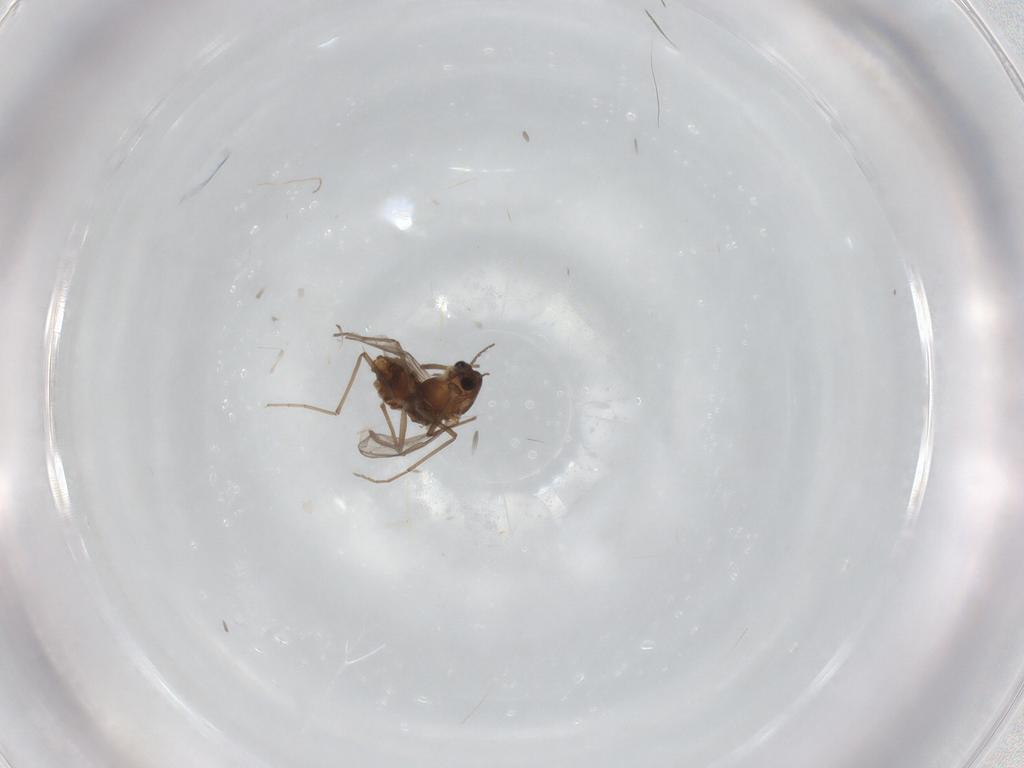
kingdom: Animalia
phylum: Arthropoda
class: Insecta
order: Diptera
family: Chironomidae
